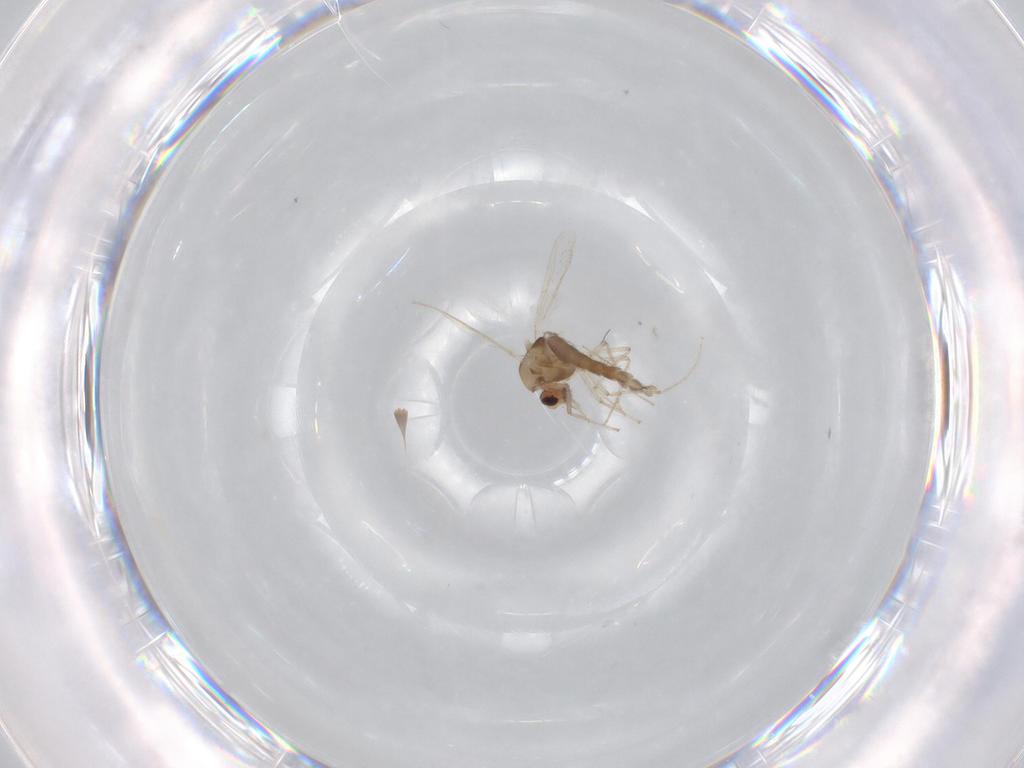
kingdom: Animalia
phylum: Arthropoda
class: Insecta
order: Diptera
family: Chironomidae
